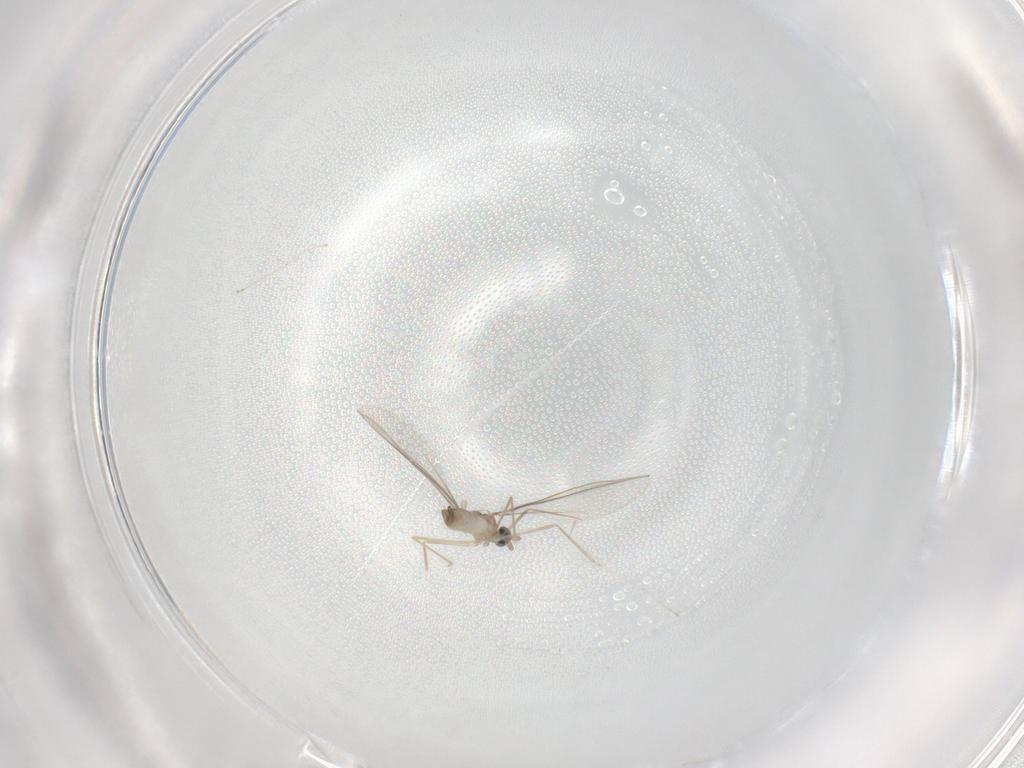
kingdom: Animalia
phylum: Arthropoda
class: Insecta
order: Diptera
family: Cecidomyiidae
